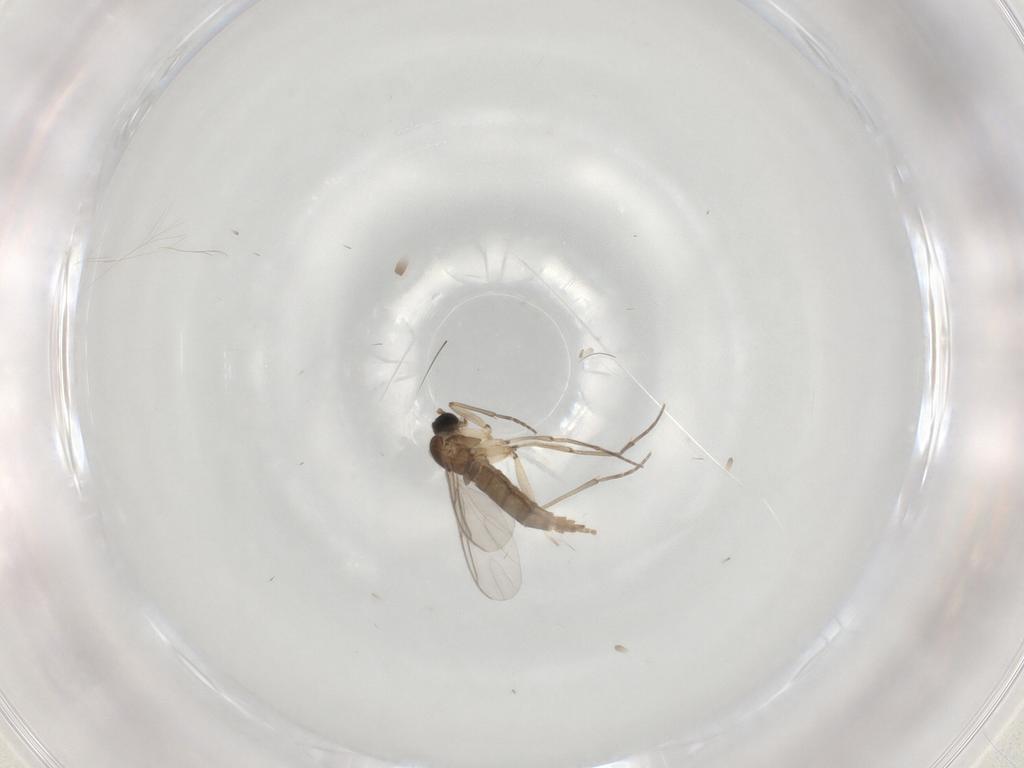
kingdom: Animalia
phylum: Arthropoda
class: Insecta
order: Diptera
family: Sciaridae
